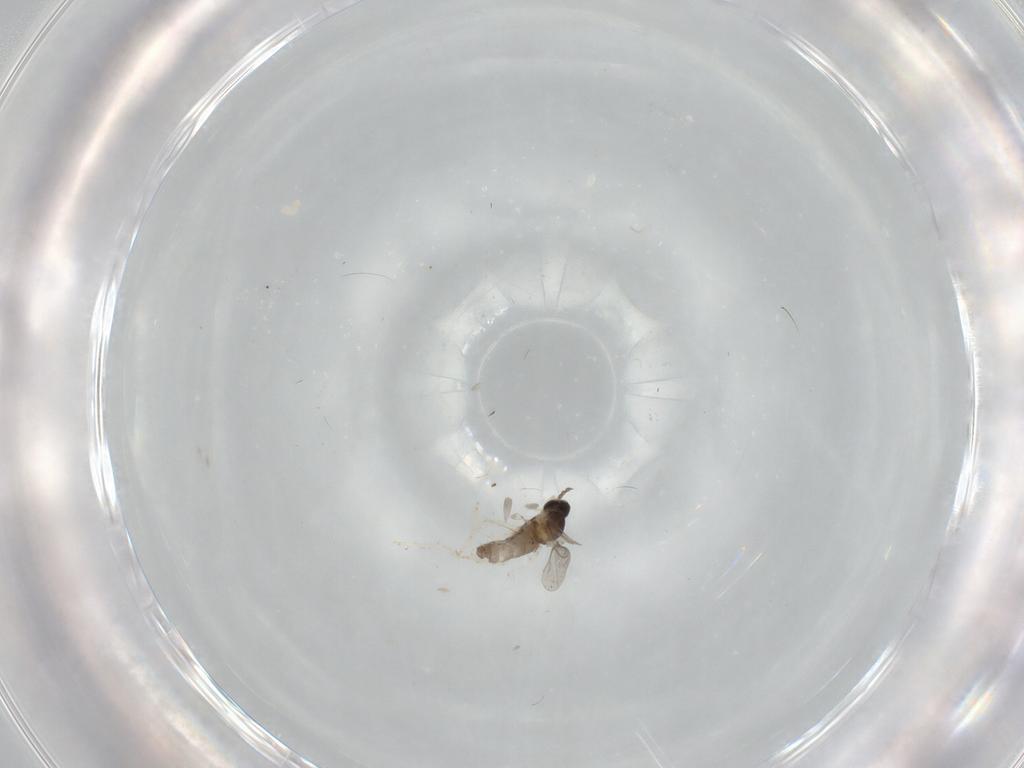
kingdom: Animalia
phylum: Arthropoda
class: Insecta
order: Diptera
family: Phoridae
